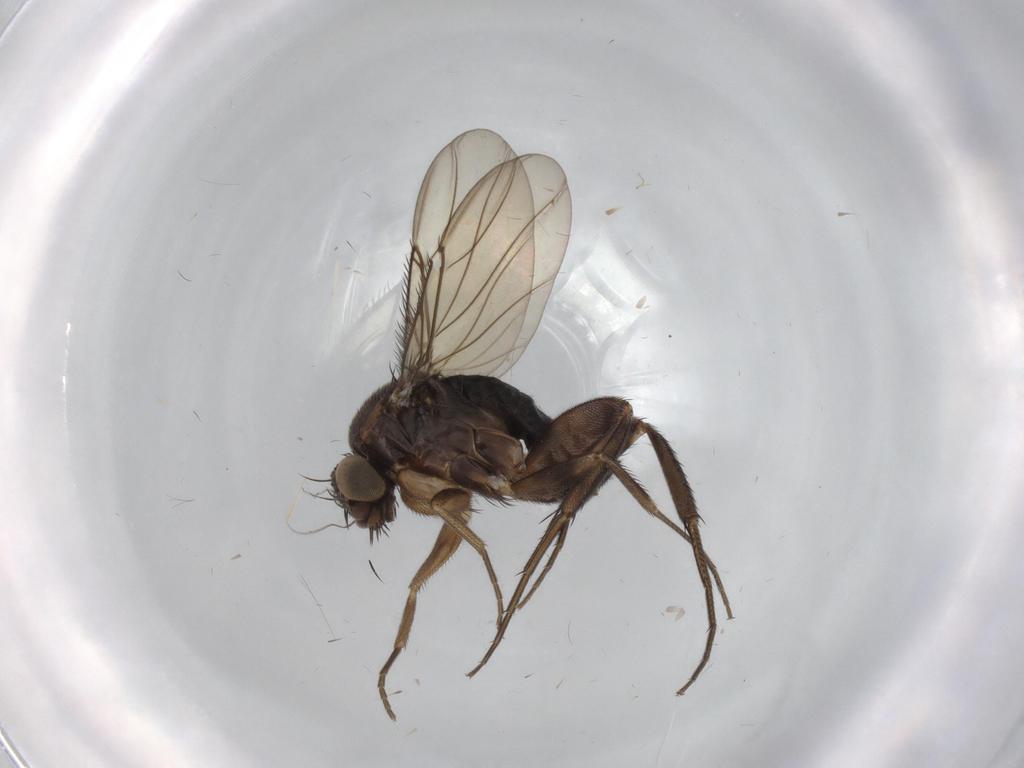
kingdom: Animalia
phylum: Arthropoda
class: Insecta
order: Diptera
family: Phoridae
